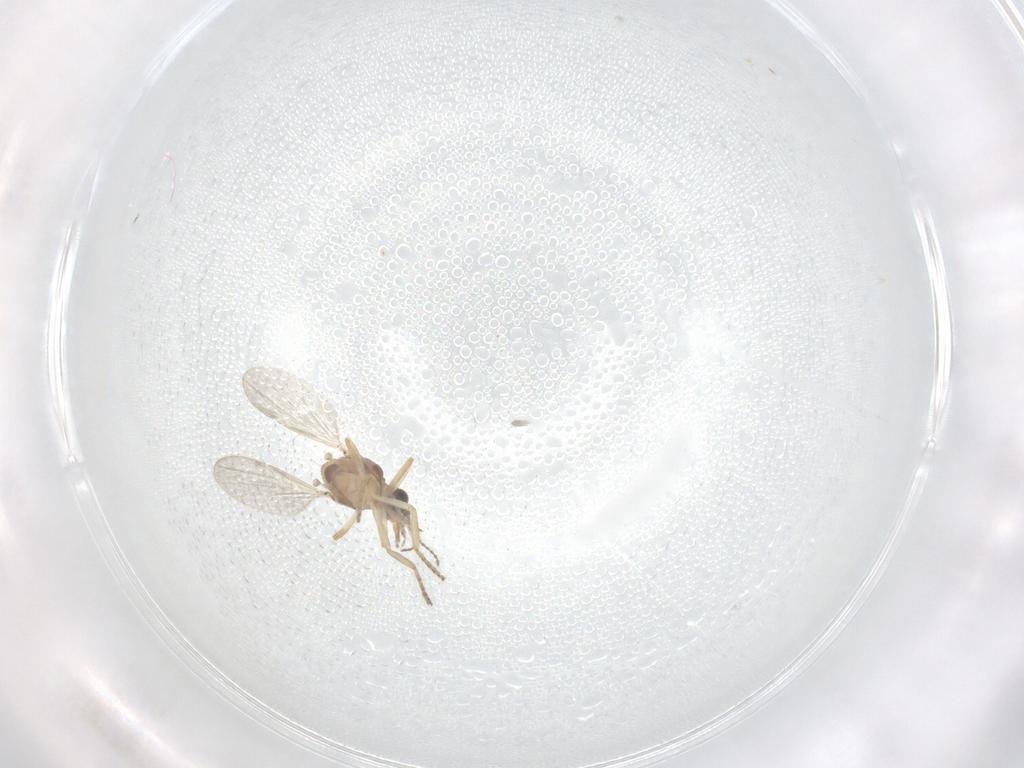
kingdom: Animalia
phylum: Arthropoda
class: Insecta
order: Diptera
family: Ceratopogonidae
